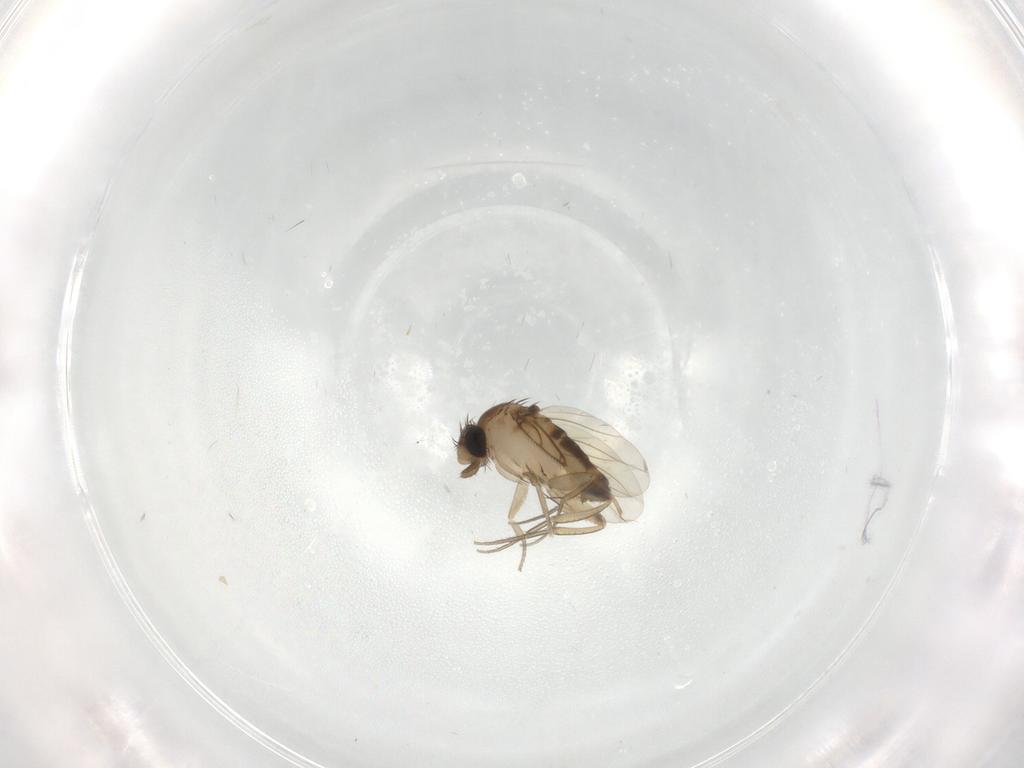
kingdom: Animalia
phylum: Arthropoda
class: Insecta
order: Diptera
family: Phoridae
